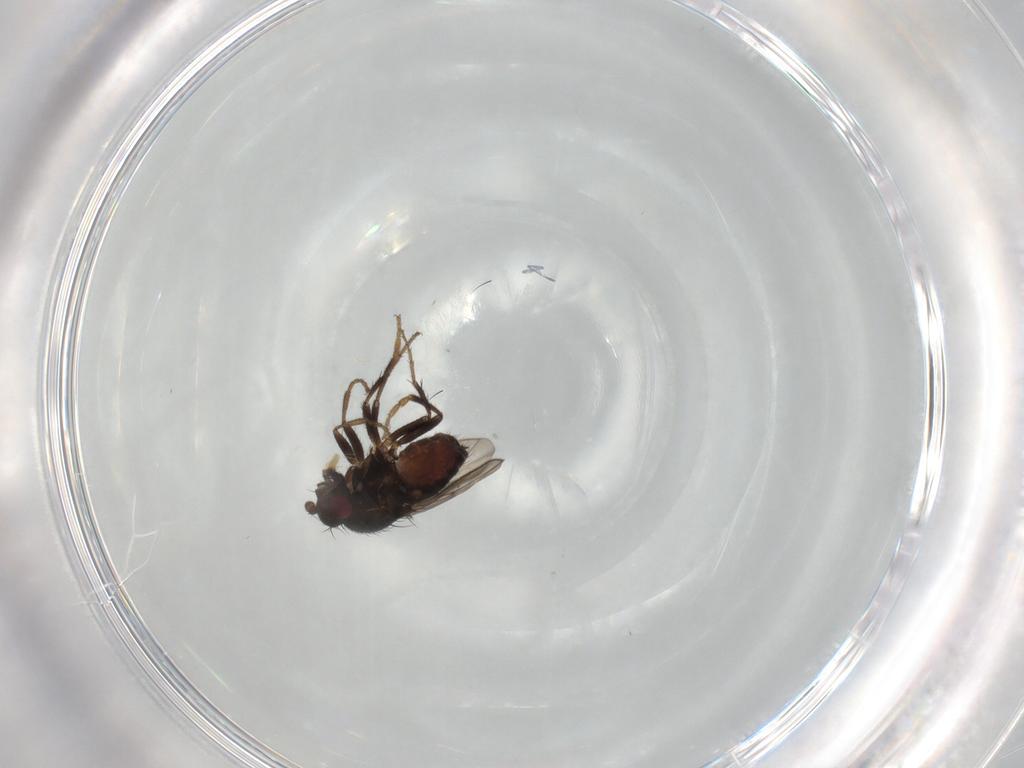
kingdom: Animalia
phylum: Arthropoda
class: Insecta
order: Diptera
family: Sphaeroceridae
